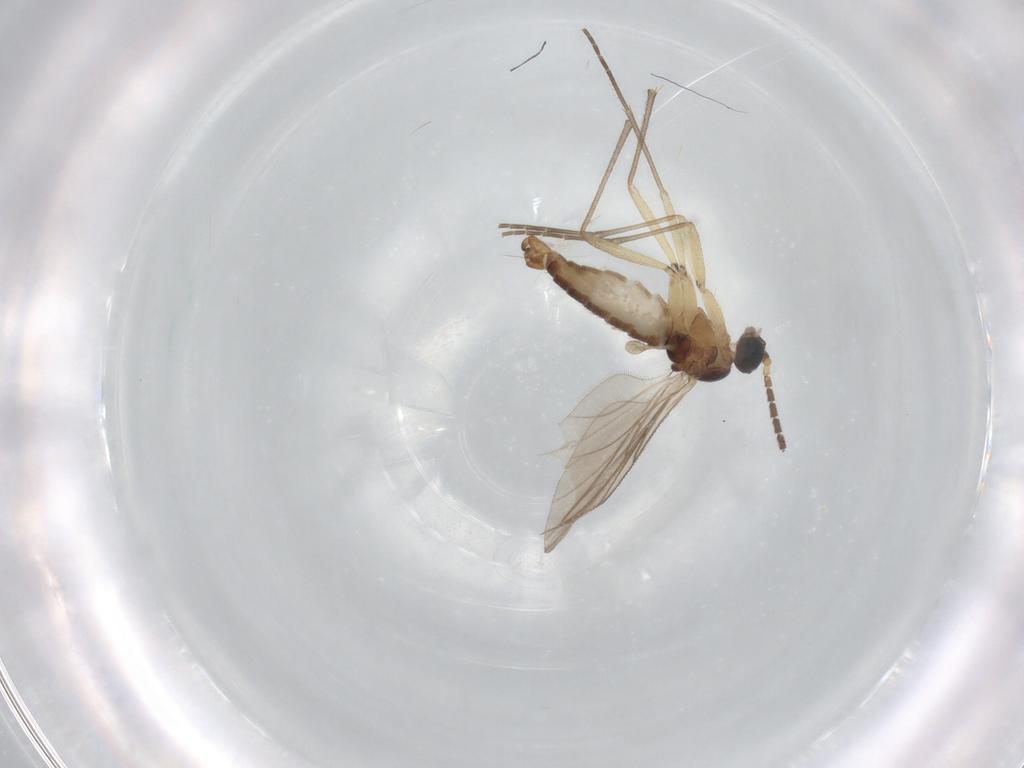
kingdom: Animalia
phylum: Arthropoda
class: Insecta
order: Diptera
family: Sciaridae
